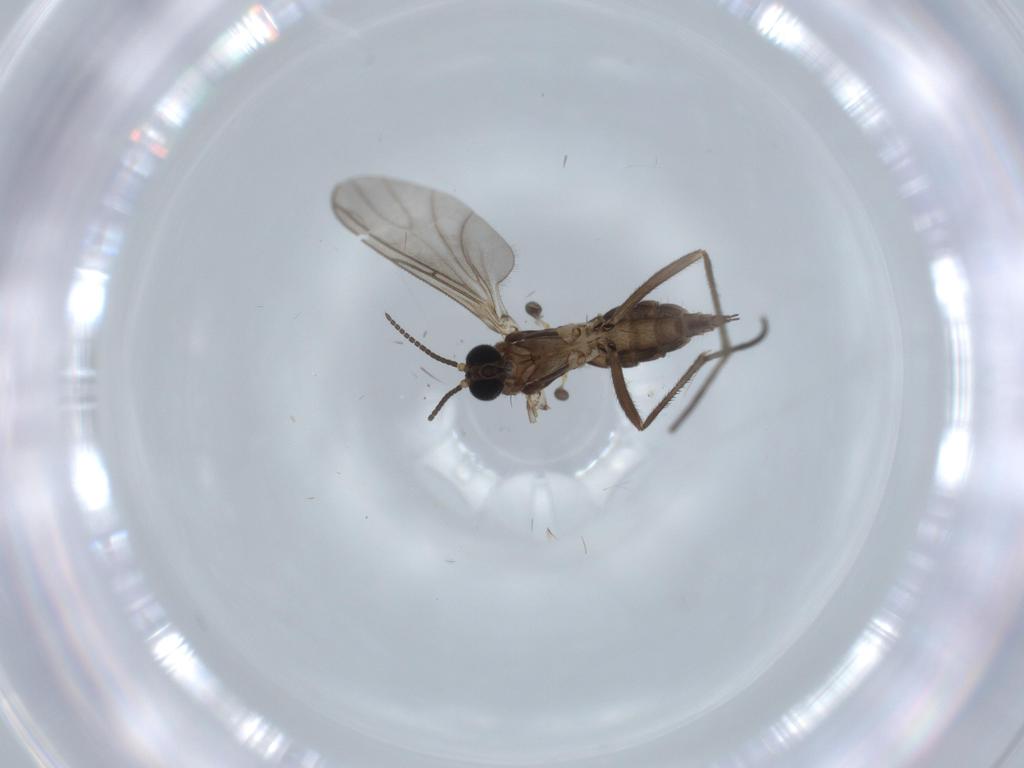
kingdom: Animalia
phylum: Arthropoda
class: Insecta
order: Diptera
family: Sciaridae
